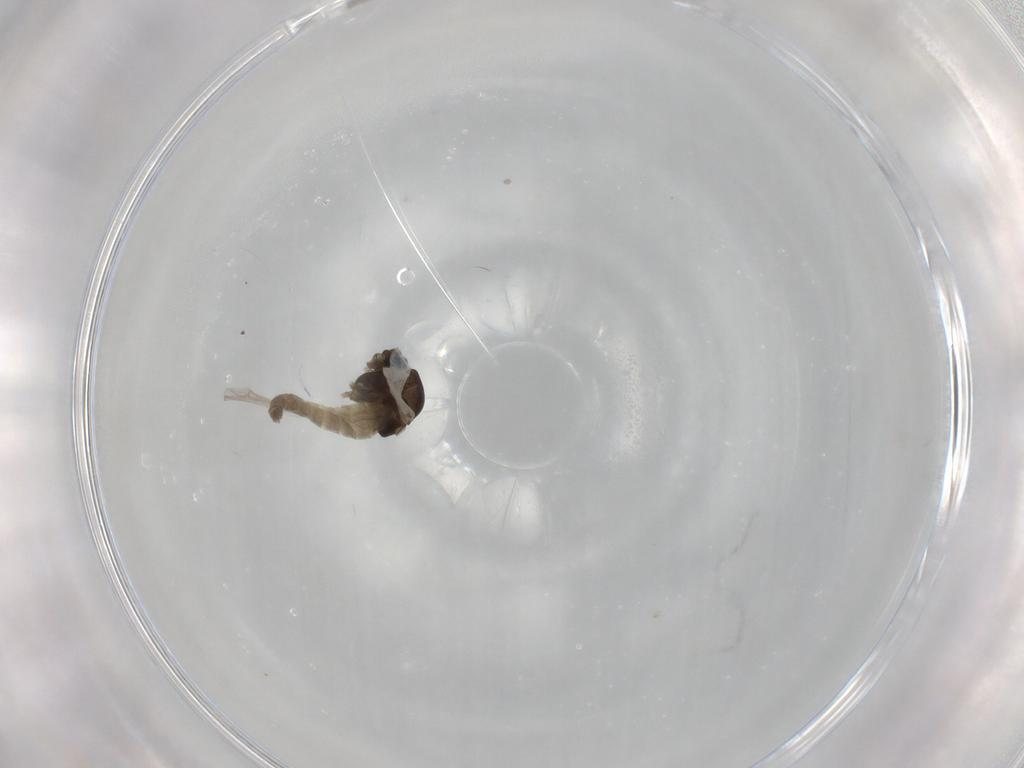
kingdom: Animalia
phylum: Arthropoda
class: Insecta
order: Diptera
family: Chironomidae
